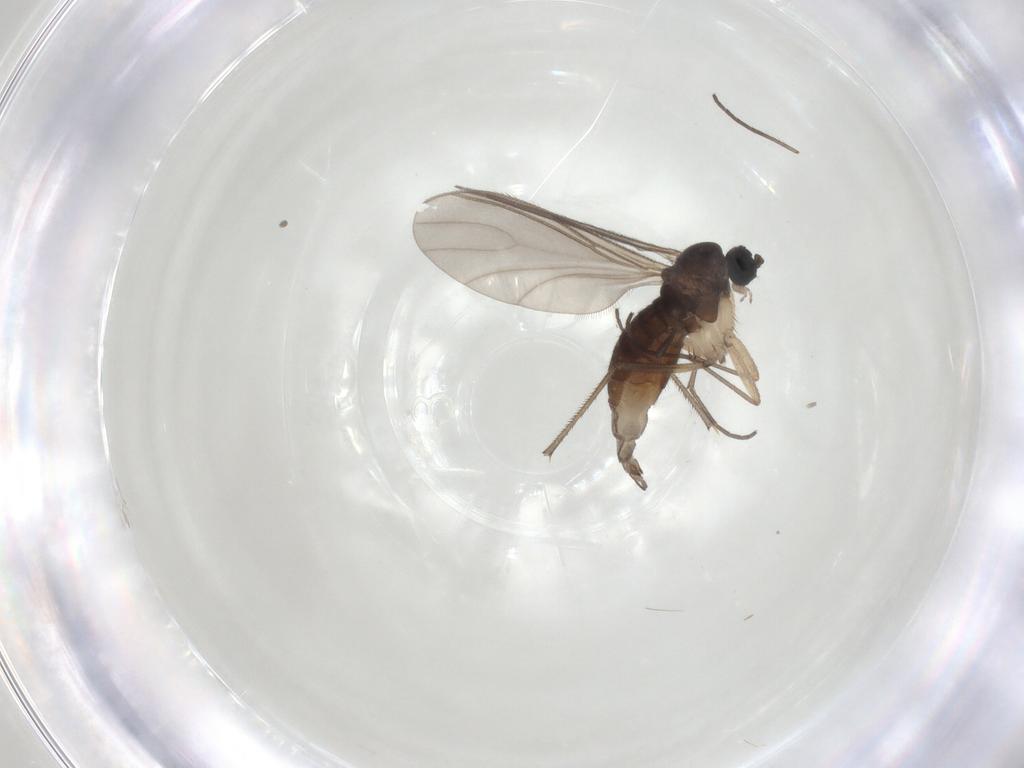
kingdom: Animalia
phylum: Arthropoda
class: Insecta
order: Diptera
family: Sciaridae
